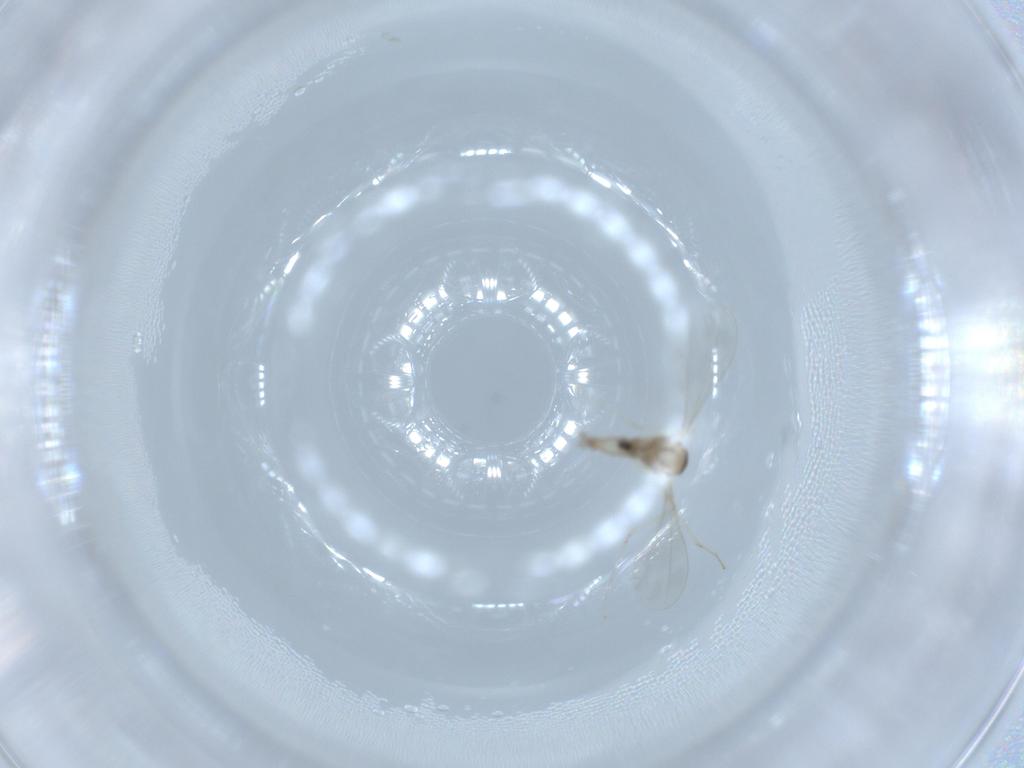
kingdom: Animalia
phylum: Arthropoda
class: Insecta
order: Diptera
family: Cecidomyiidae
